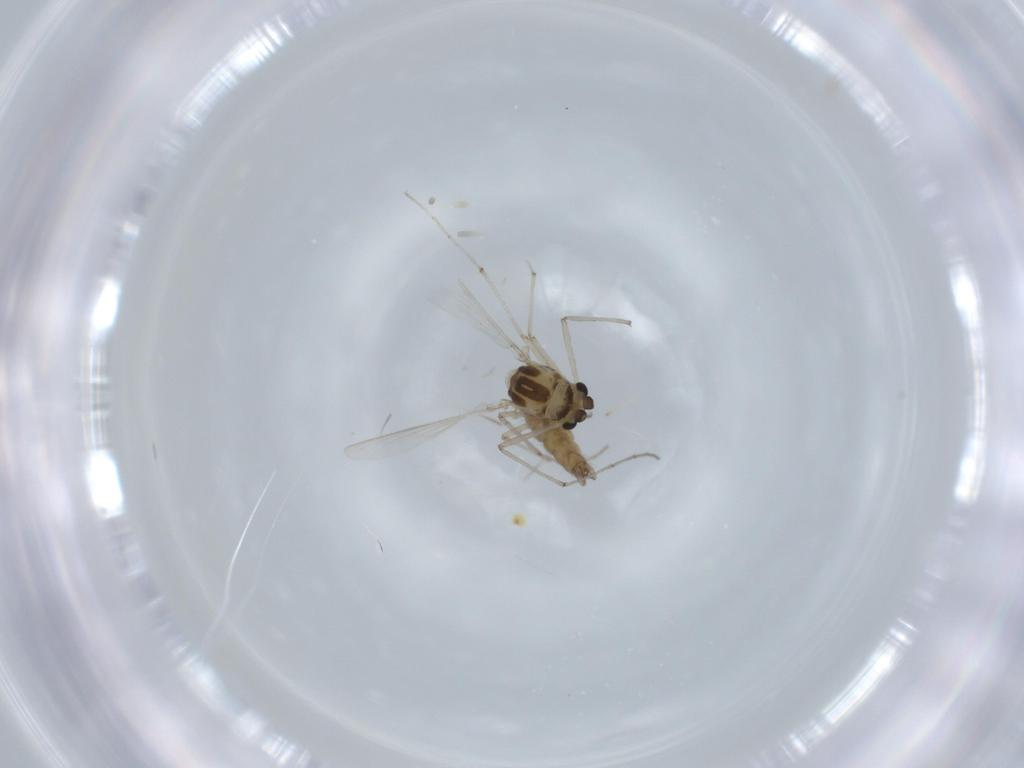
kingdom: Animalia
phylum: Arthropoda
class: Insecta
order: Diptera
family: Chironomidae
